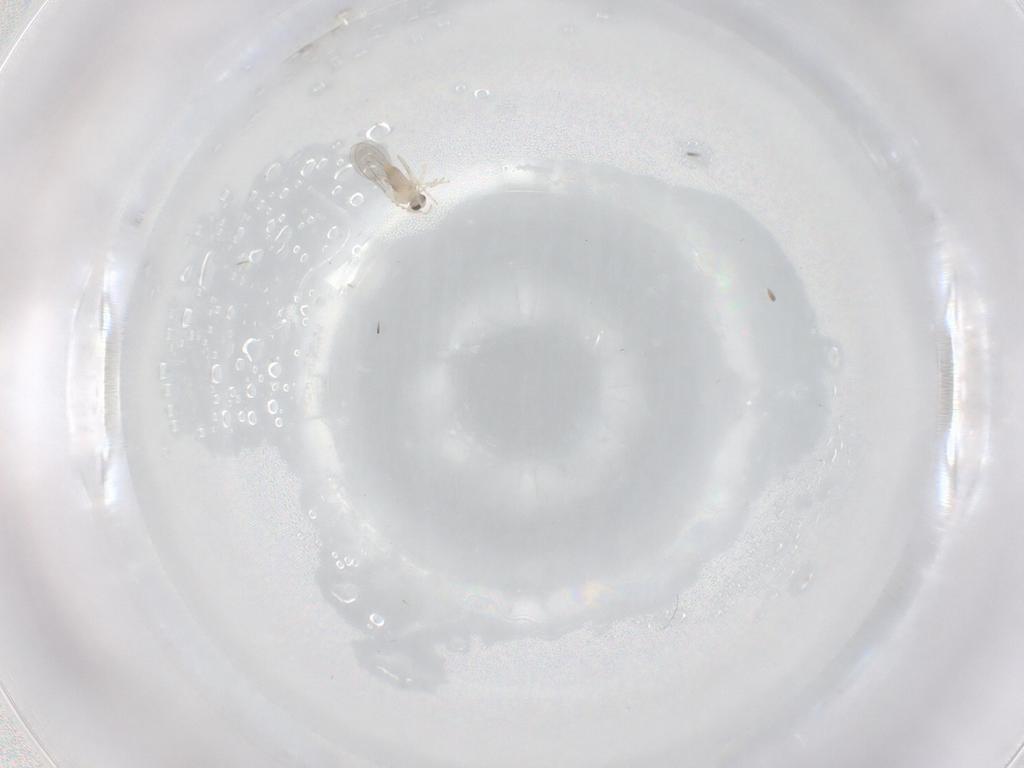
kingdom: Animalia
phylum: Arthropoda
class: Insecta
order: Diptera
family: Cecidomyiidae
